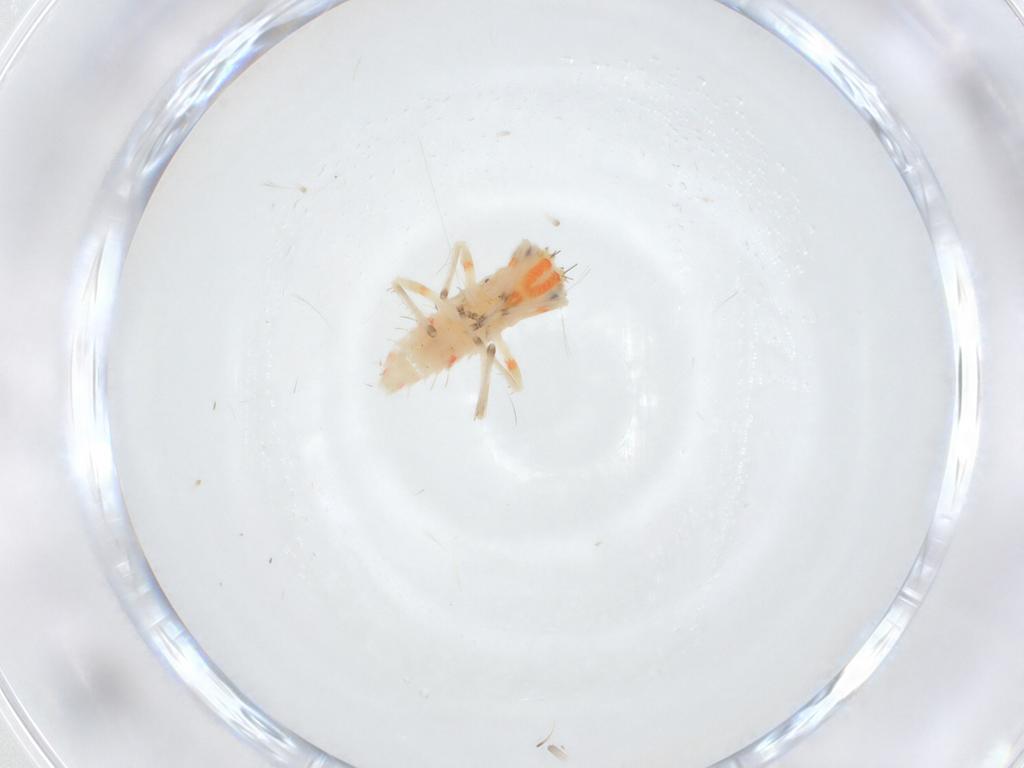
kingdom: Animalia
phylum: Arthropoda
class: Insecta
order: Hemiptera
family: Cicadellidae
